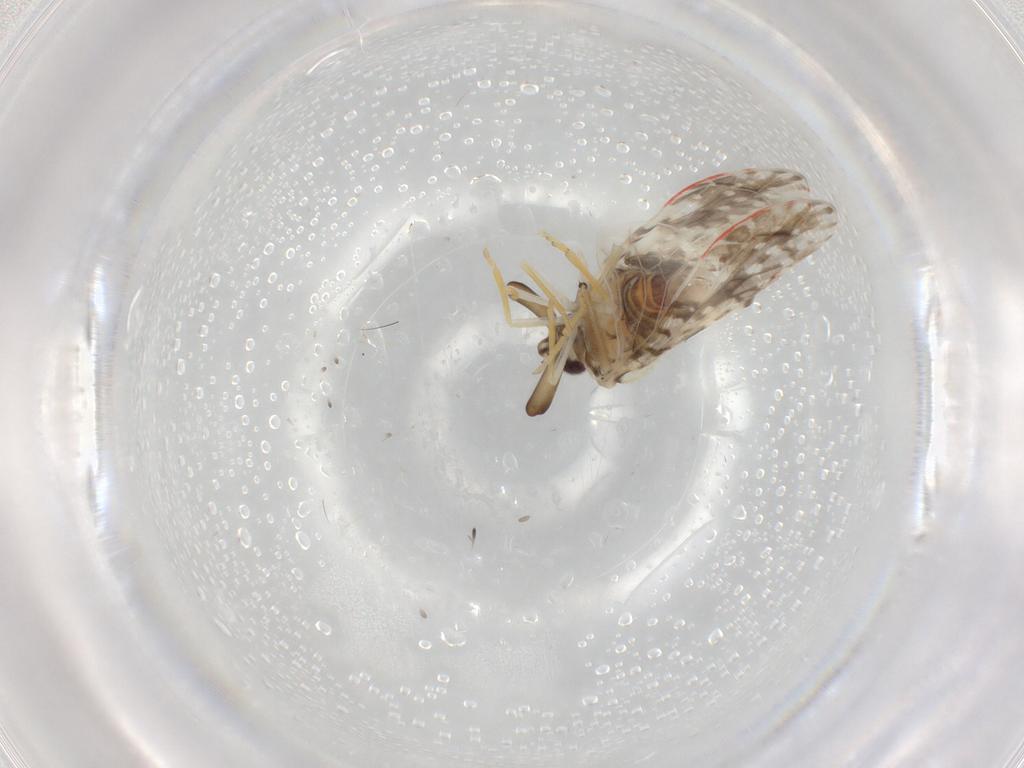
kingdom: Animalia
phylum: Arthropoda
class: Insecta
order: Hemiptera
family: Derbidae
